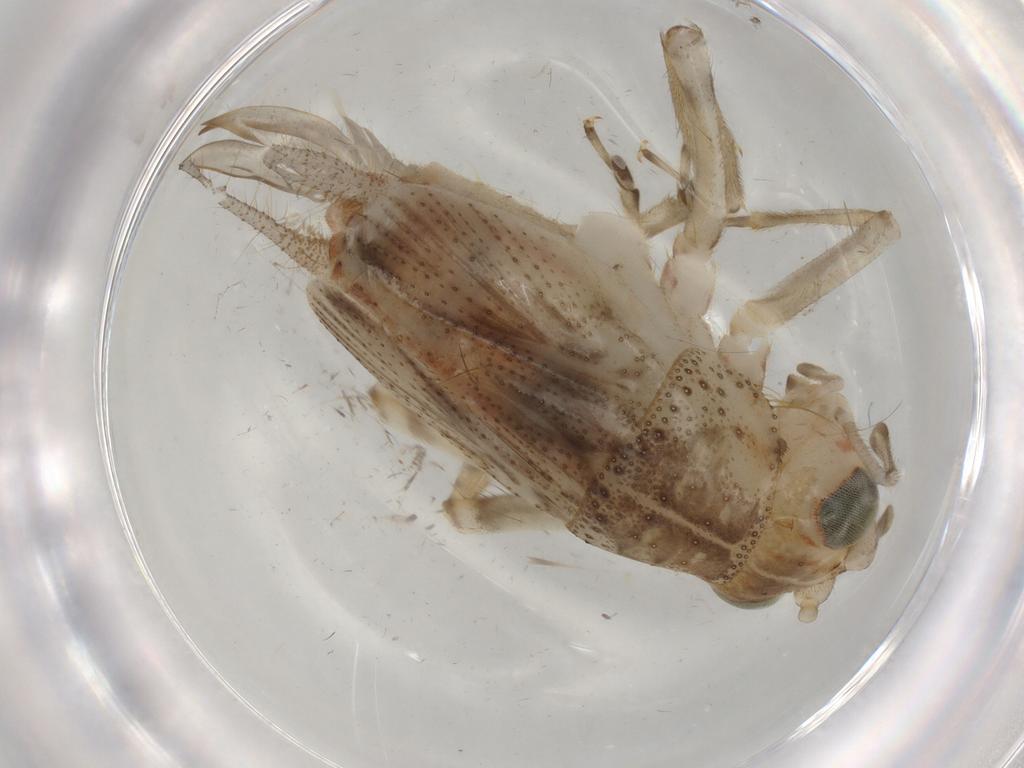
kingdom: Animalia
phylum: Arthropoda
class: Insecta
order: Orthoptera
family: Trigonidiidae
